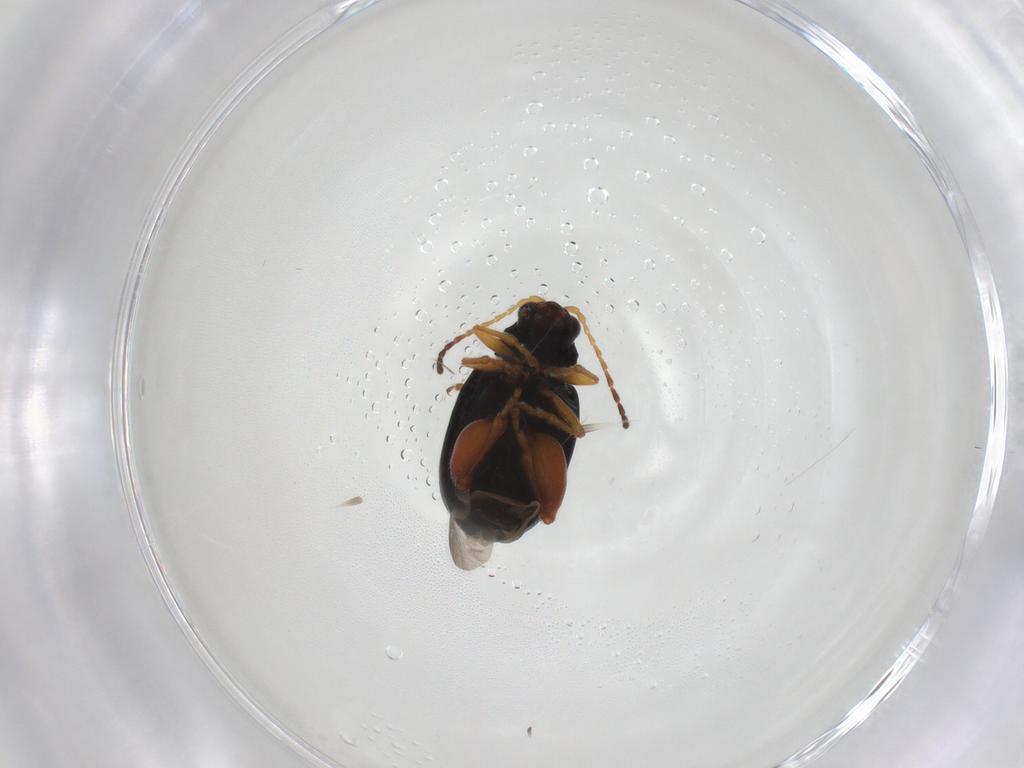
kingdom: Animalia
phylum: Arthropoda
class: Insecta
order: Coleoptera
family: Chrysomelidae
